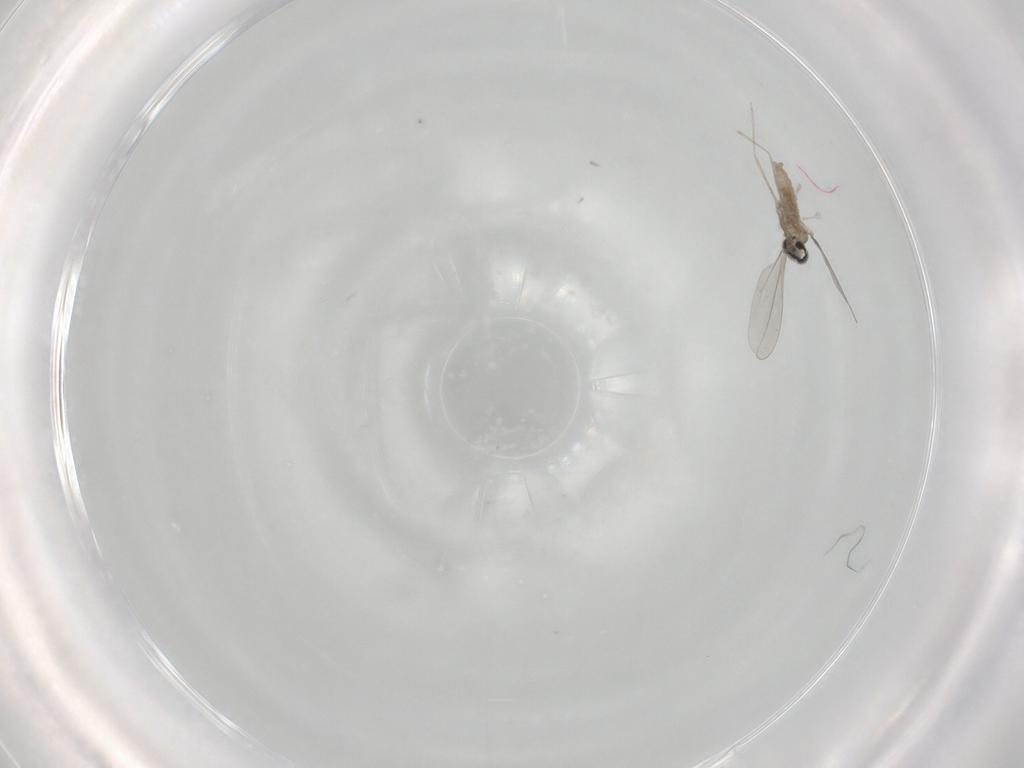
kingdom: Animalia
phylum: Arthropoda
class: Insecta
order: Diptera
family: Cecidomyiidae
